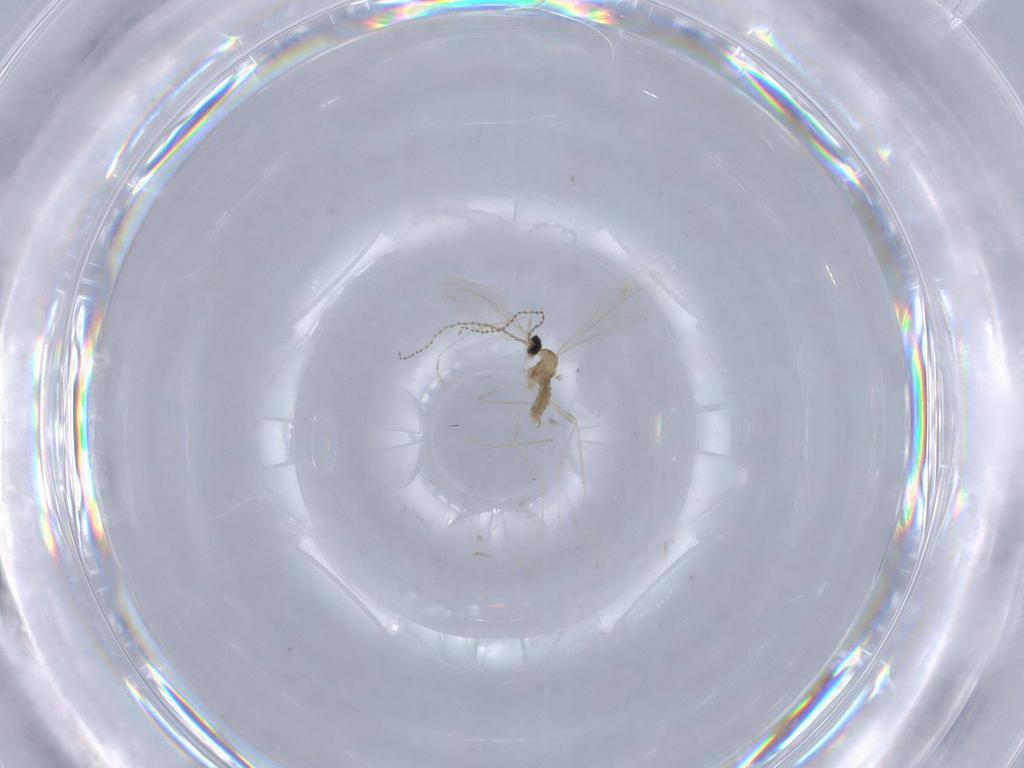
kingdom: Animalia
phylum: Arthropoda
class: Insecta
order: Diptera
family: Cecidomyiidae
